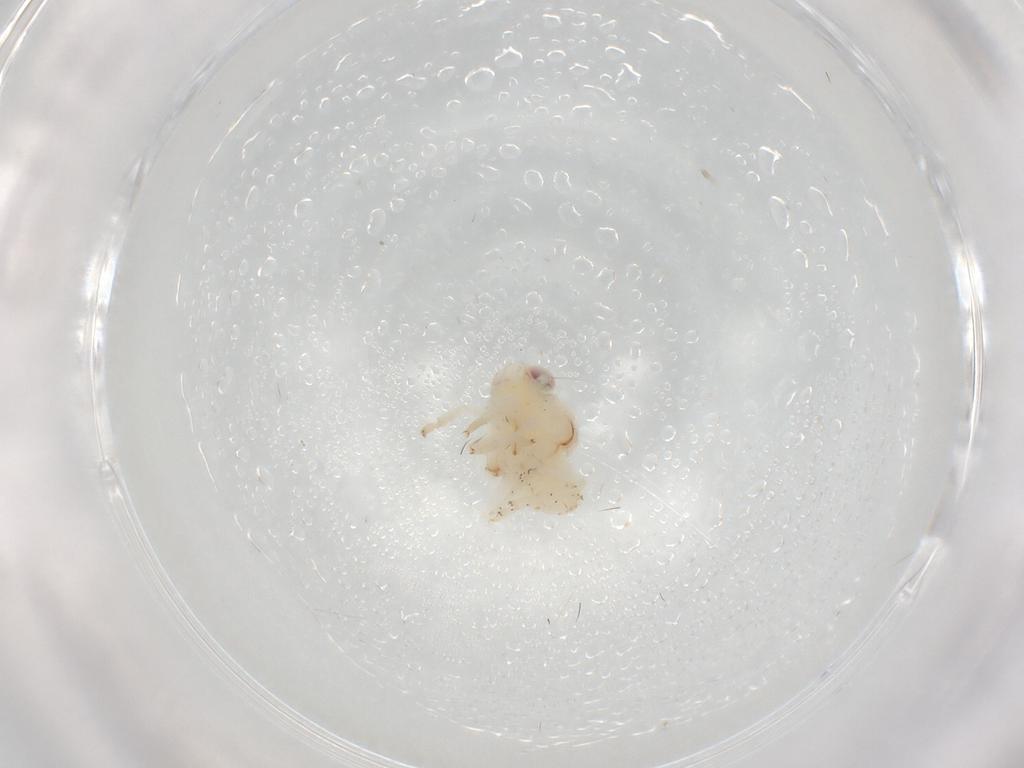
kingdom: Animalia
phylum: Arthropoda
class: Insecta
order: Hemiptera
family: Nogodinidae
